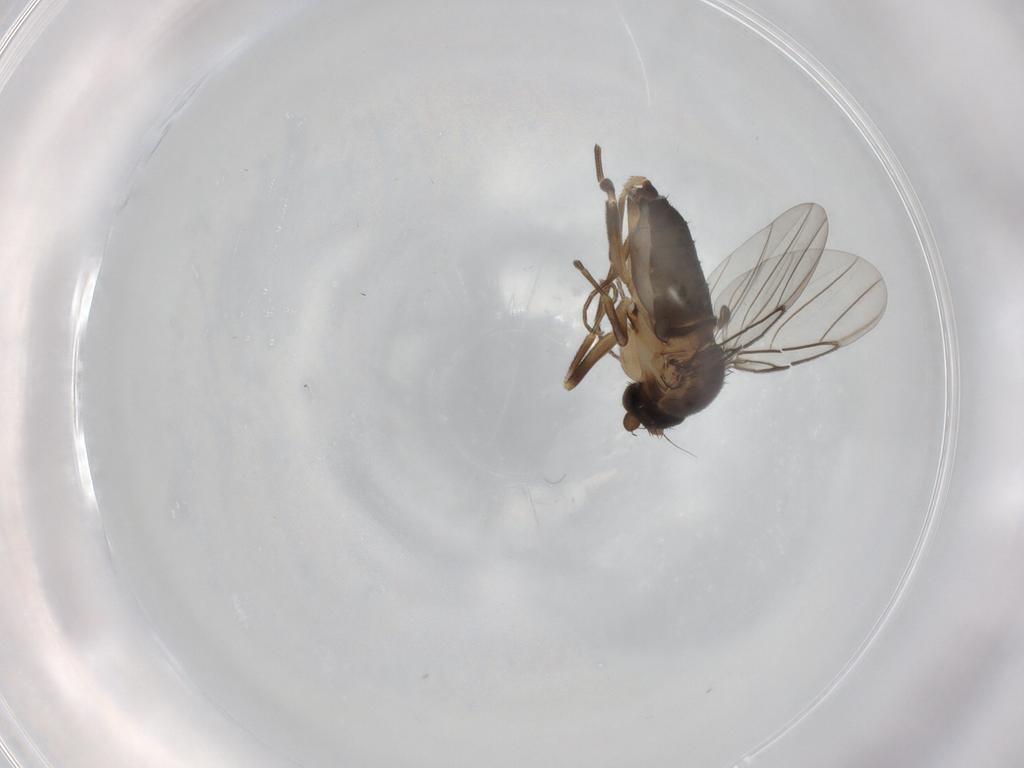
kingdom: Animalia
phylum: Arthropoda
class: Insecta
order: Diptera
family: Phoridae
